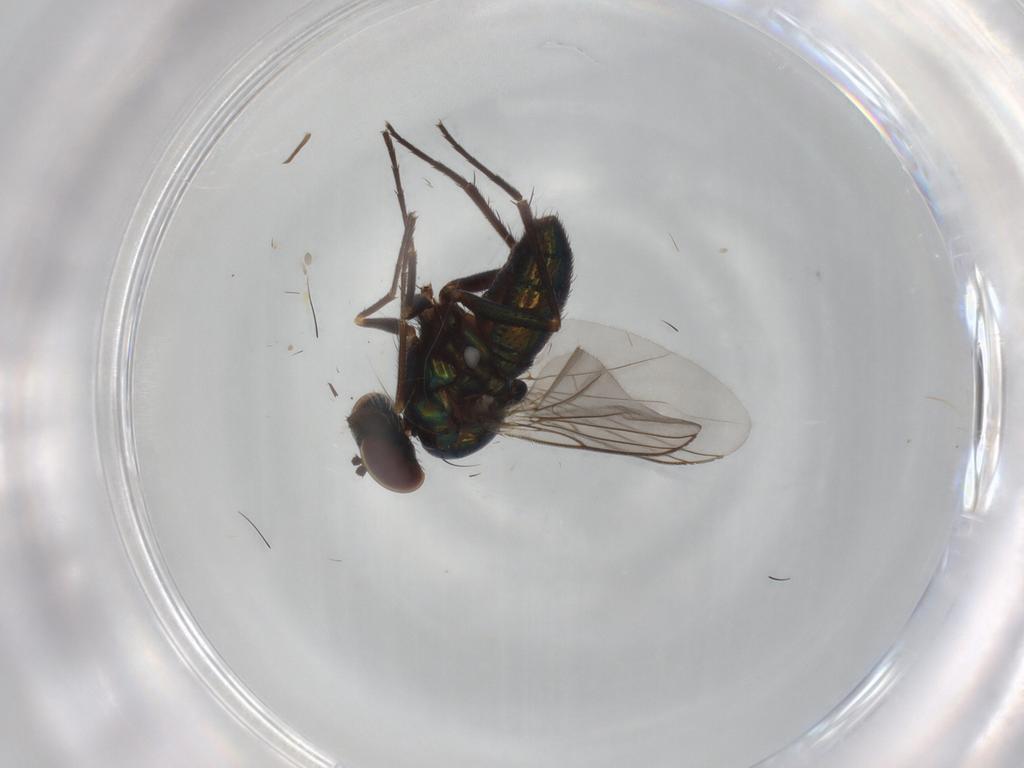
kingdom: Animalia
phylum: Arthropoda
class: Insecta
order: Diptera
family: Dolichopodidae
